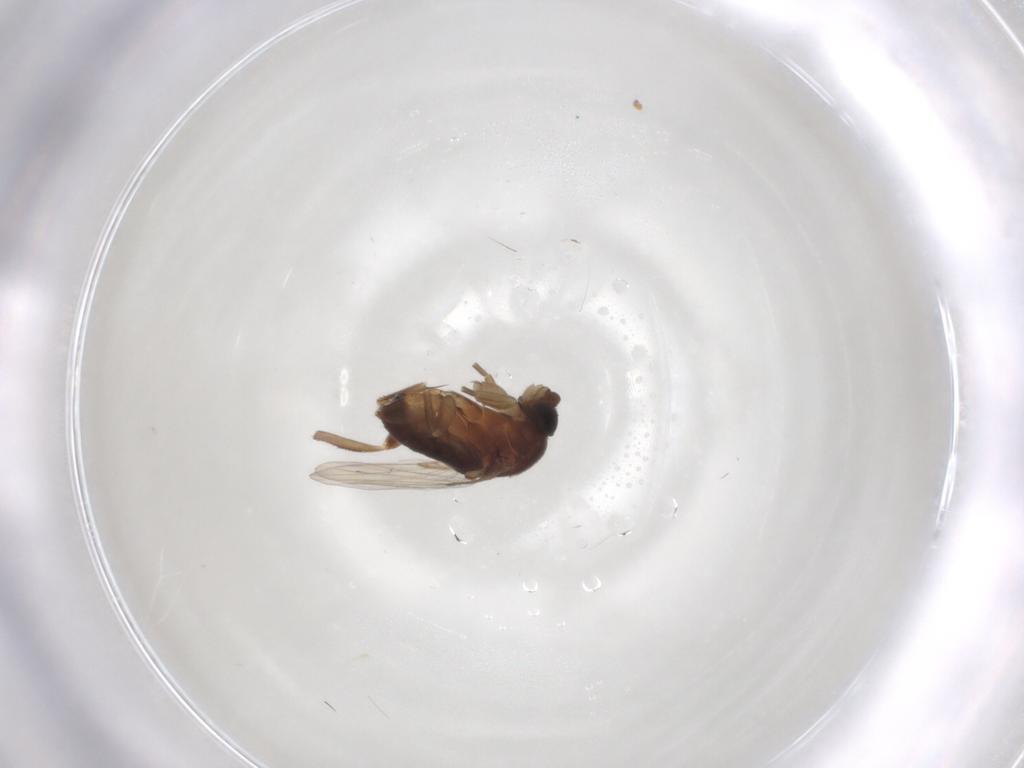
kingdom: Animalia
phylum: Arthropoda
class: Insecta
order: Diptera
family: Phoridae
